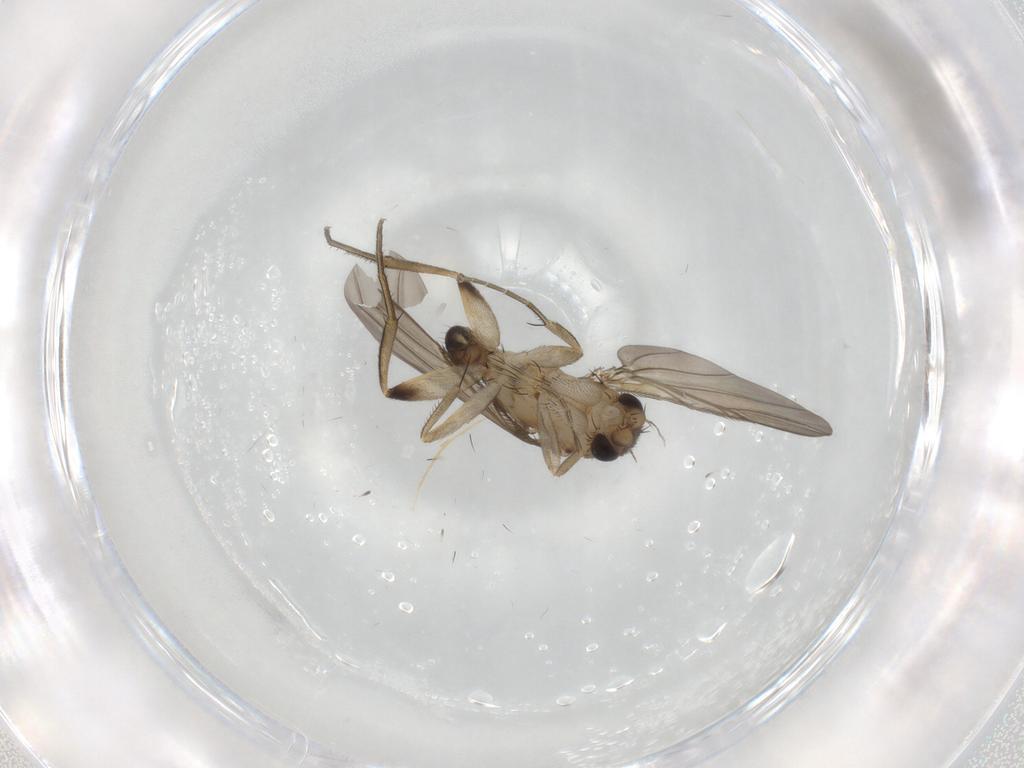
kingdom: Animalia
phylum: Arthropoda
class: Insecta
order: Diptera
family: Phoridae
